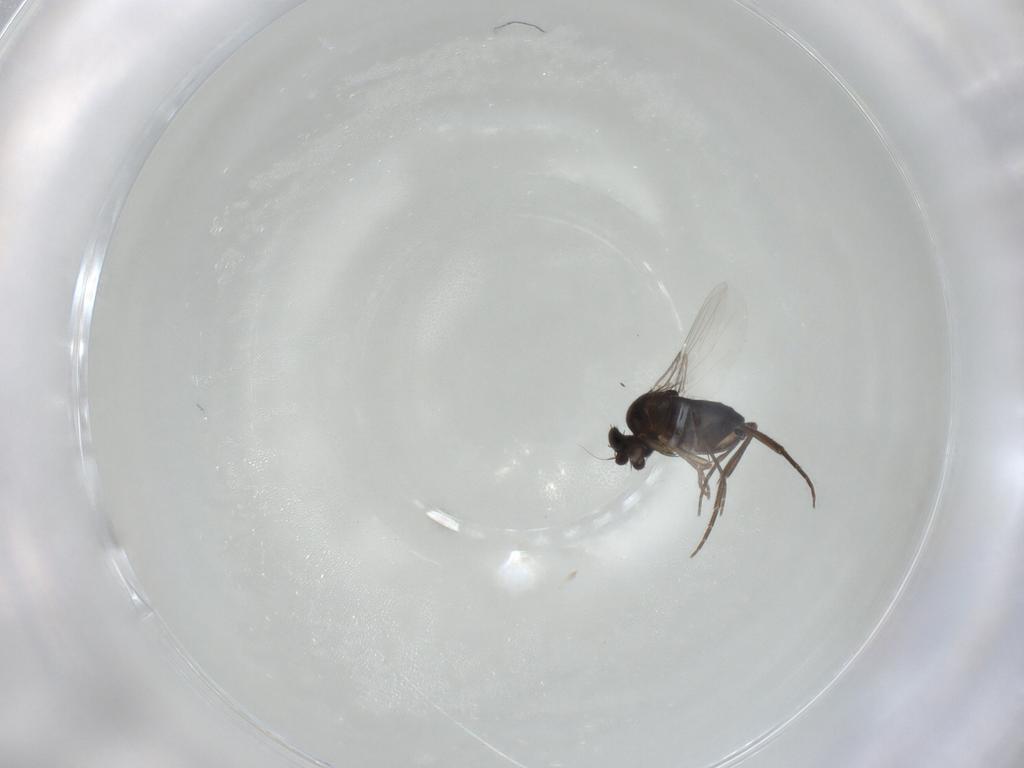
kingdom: Animalia
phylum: Arthropoda
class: Insecta
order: Diptera
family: Phoridae
